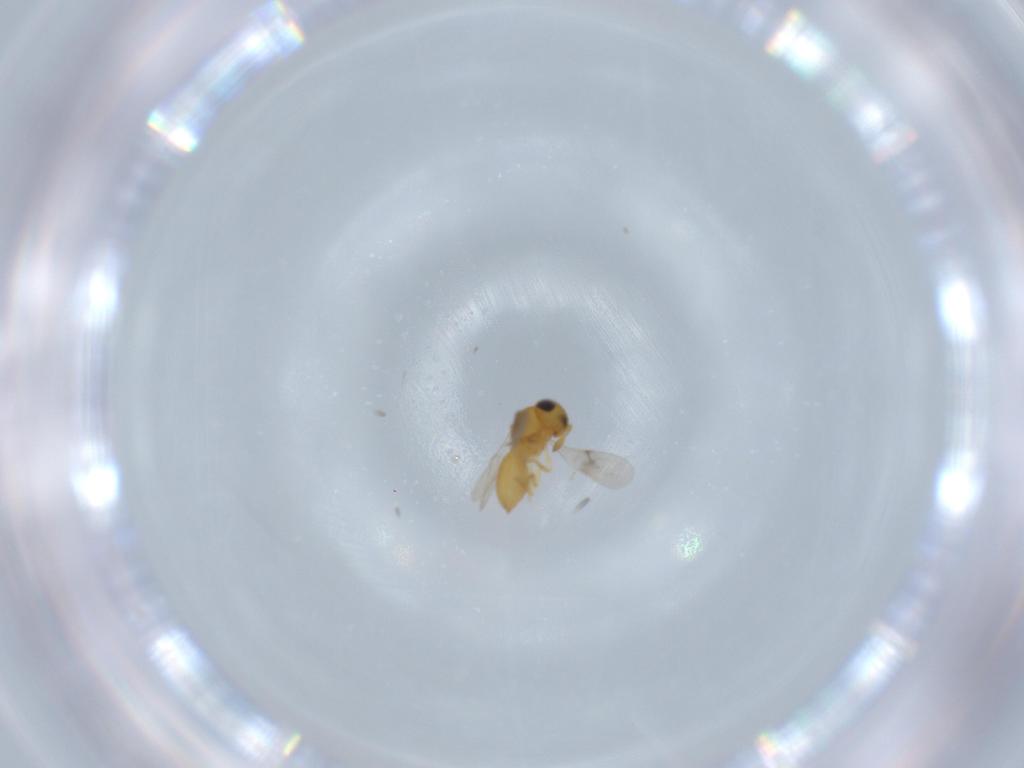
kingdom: Animalia
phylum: Arthropoda
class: Insecta
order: Hymenoptera
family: Scelionidae
